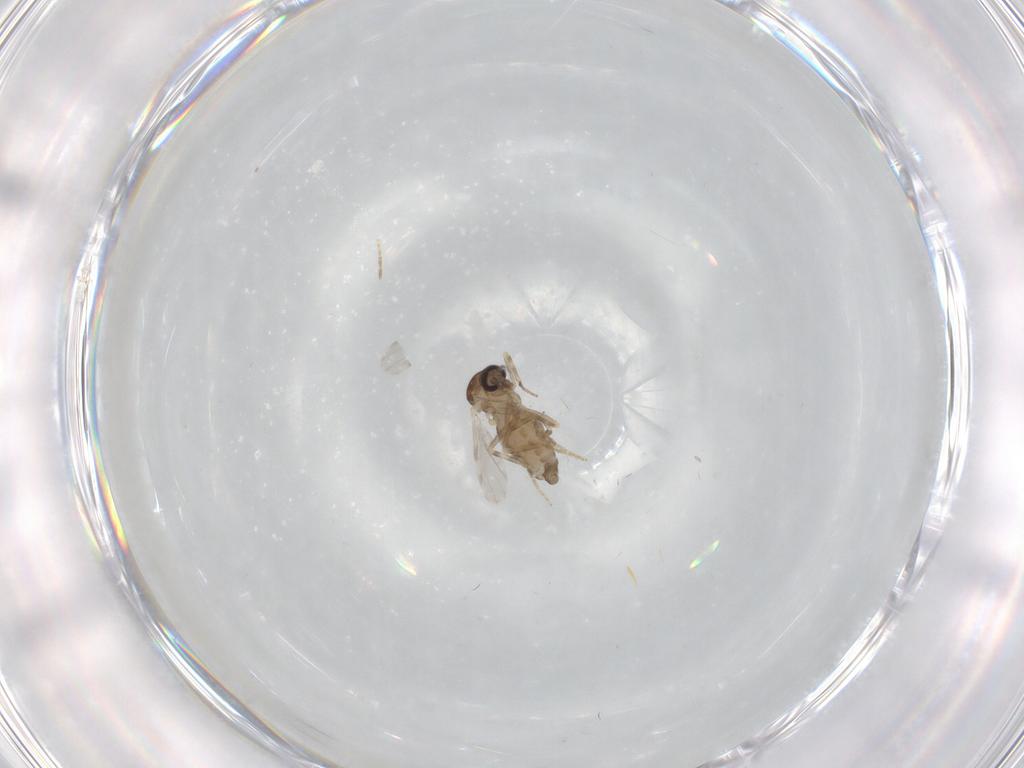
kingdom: Animalia
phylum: Arthropoda
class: Insecta
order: Diptera
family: Ceratopogonidae
